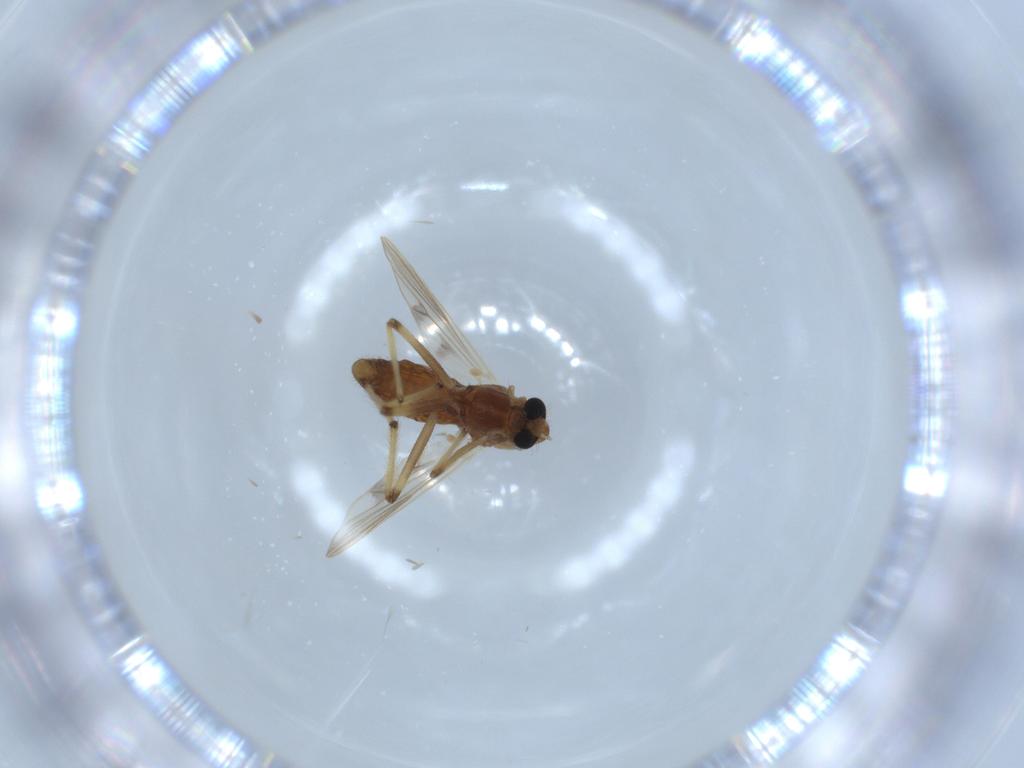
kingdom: Animalia
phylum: Arthropoda
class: Insecta
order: Diptera
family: Chironomidae
